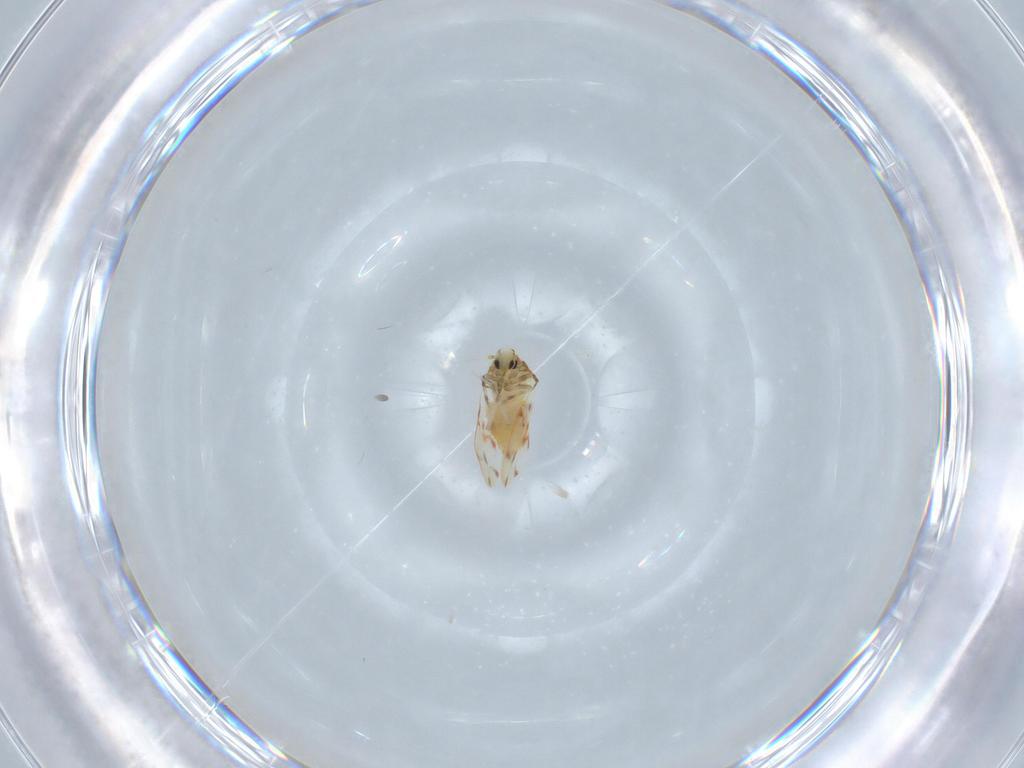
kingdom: Animalia
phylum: Arthropoda
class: Insecta
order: Hemiptera
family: Aleyrodidae
